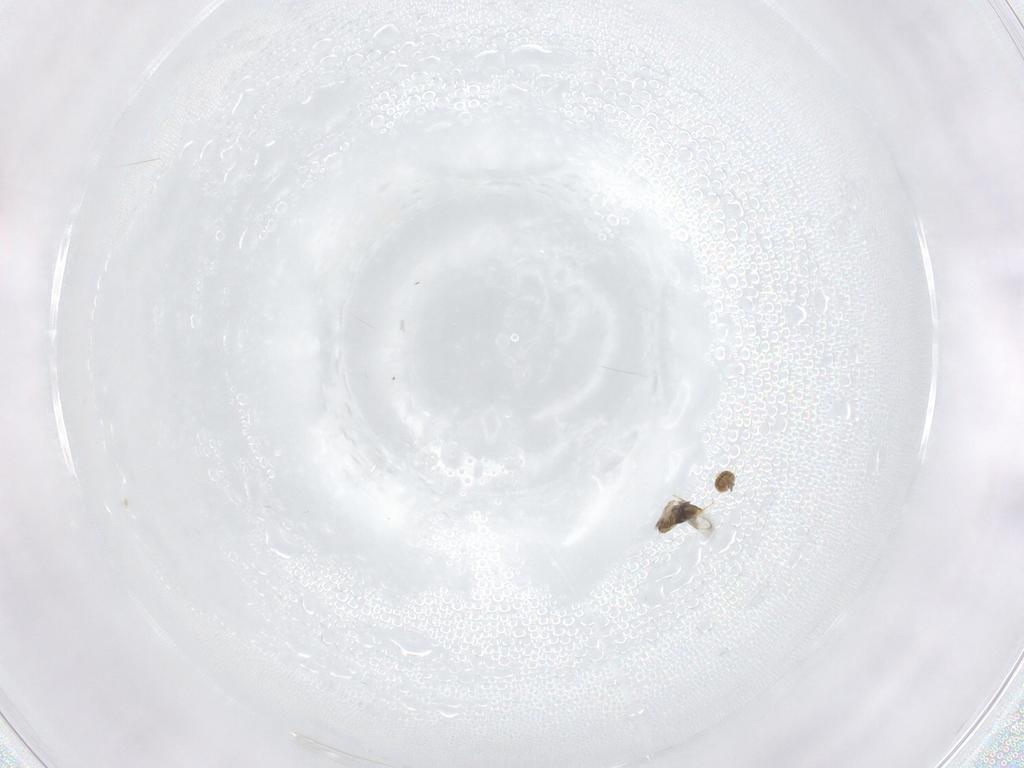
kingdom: Animalia
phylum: Arthropoda
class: Insecta
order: Hymenoptera
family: Aphelinidae
